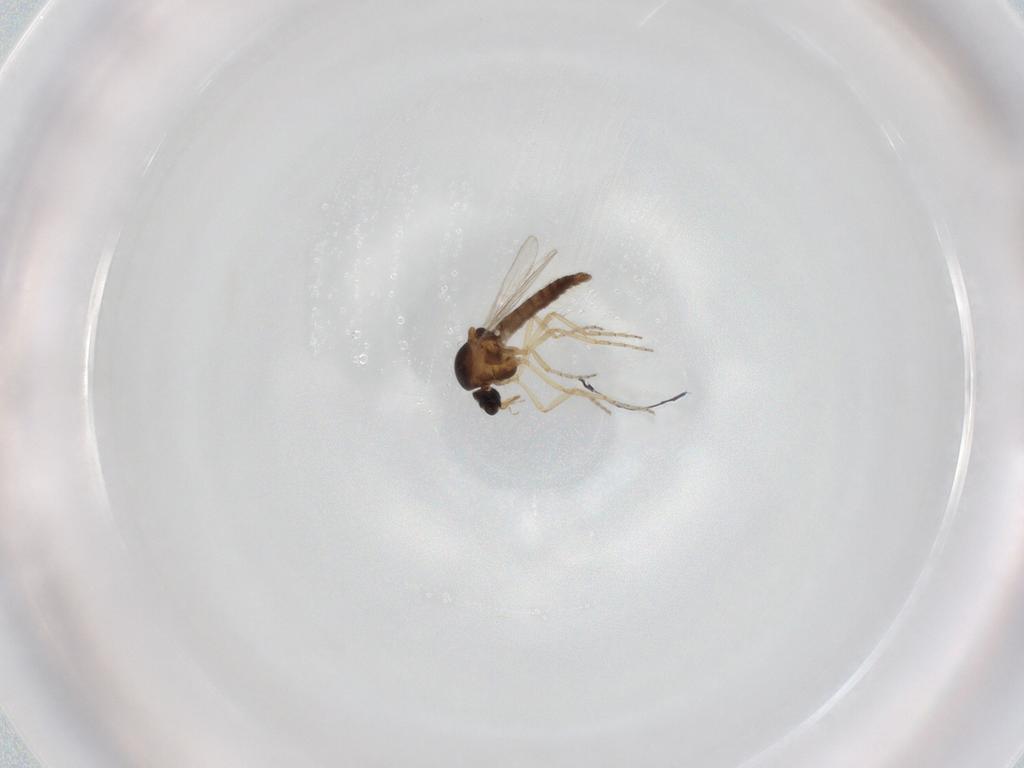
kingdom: Animalia
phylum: Arthropoda
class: Insecta
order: Diptera
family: Ceratopogonidae
